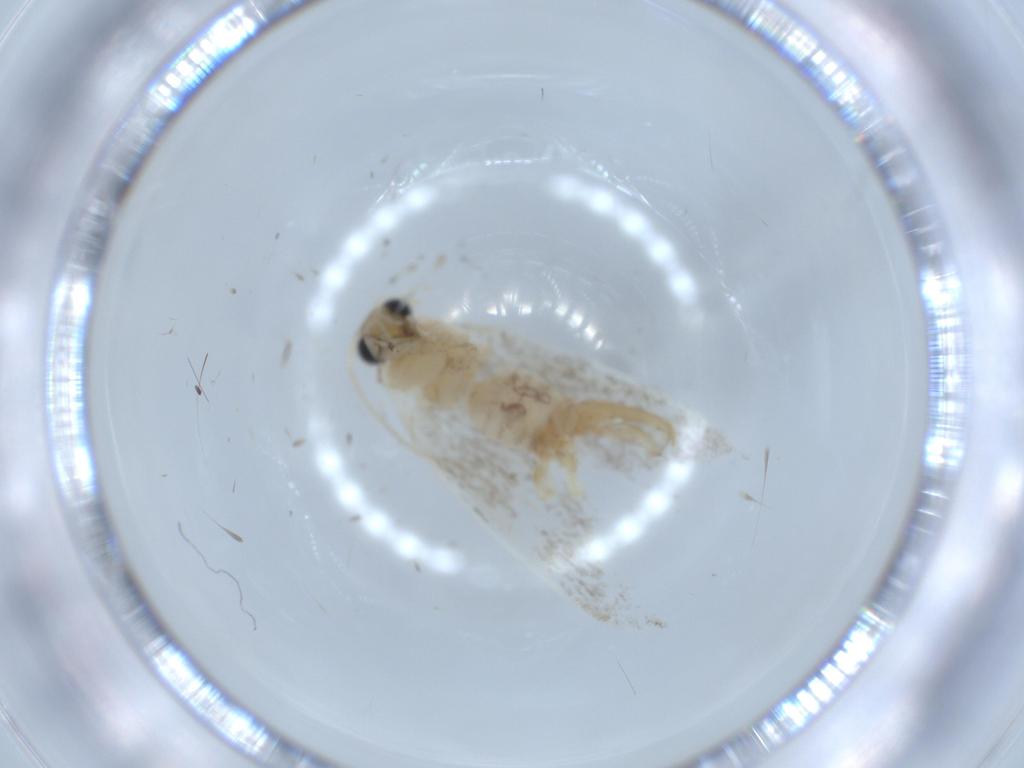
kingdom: Animalia
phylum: Arthropoda
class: Insecta
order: Lepidoptera
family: Tineidae
